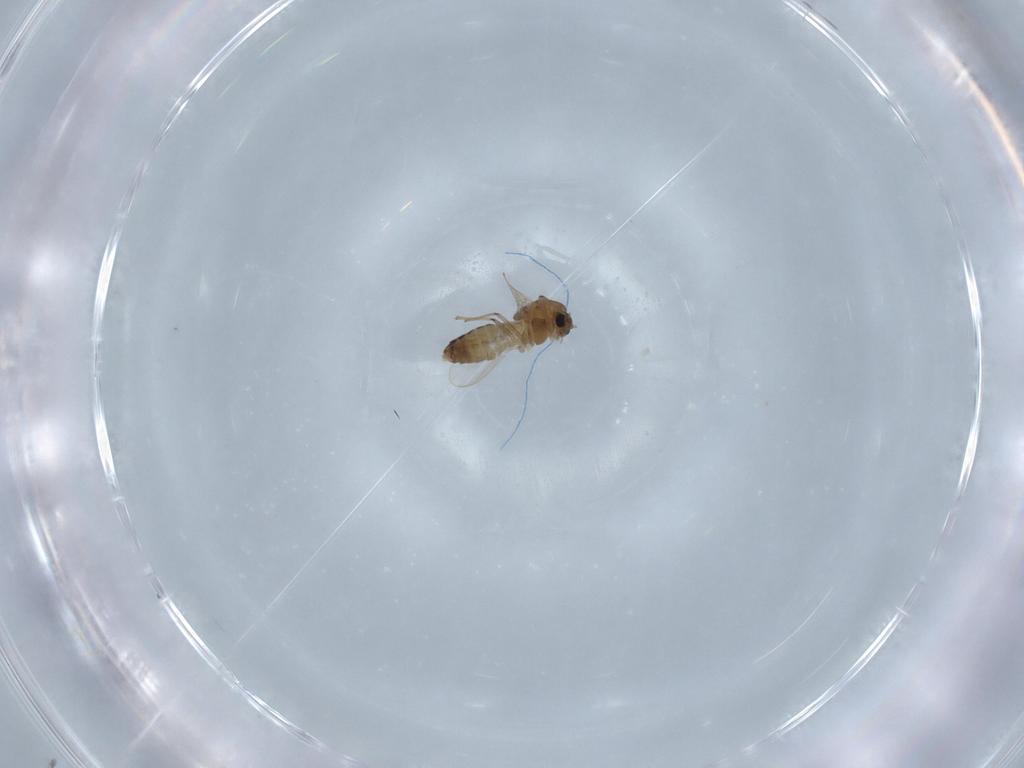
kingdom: Animalia
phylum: Arthropoda
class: Insecta
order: Diptera
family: Chironomidae
